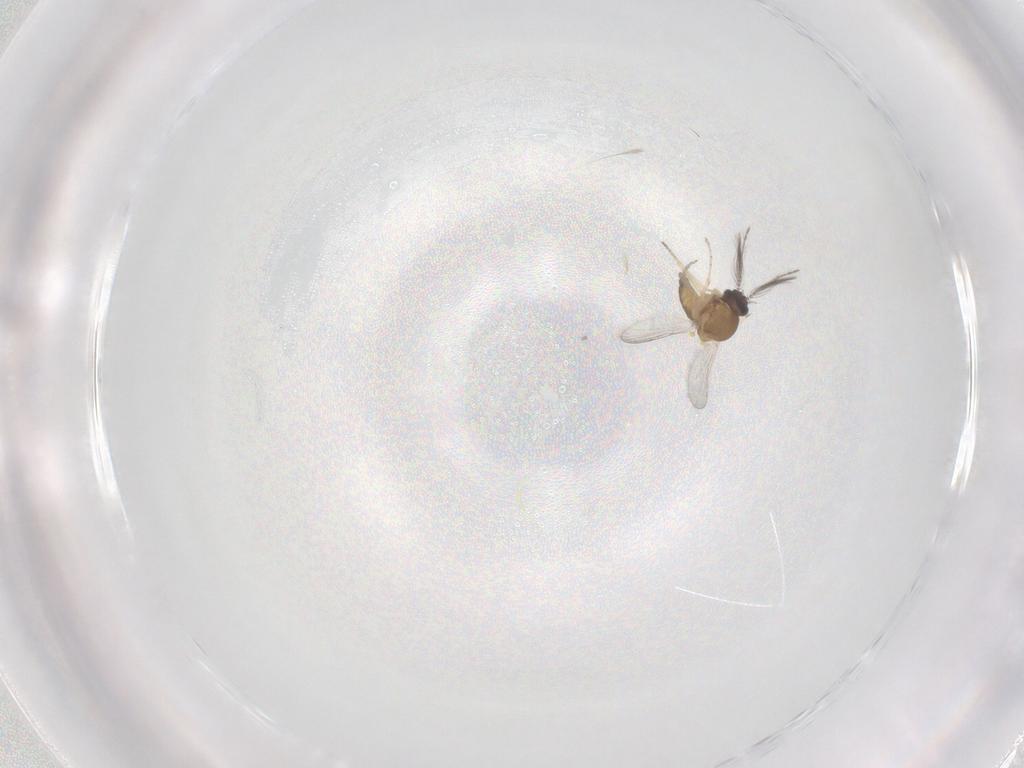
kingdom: Animalia
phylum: Arthropoda
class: Insecta
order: Diptera
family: Ceratopogonidae
